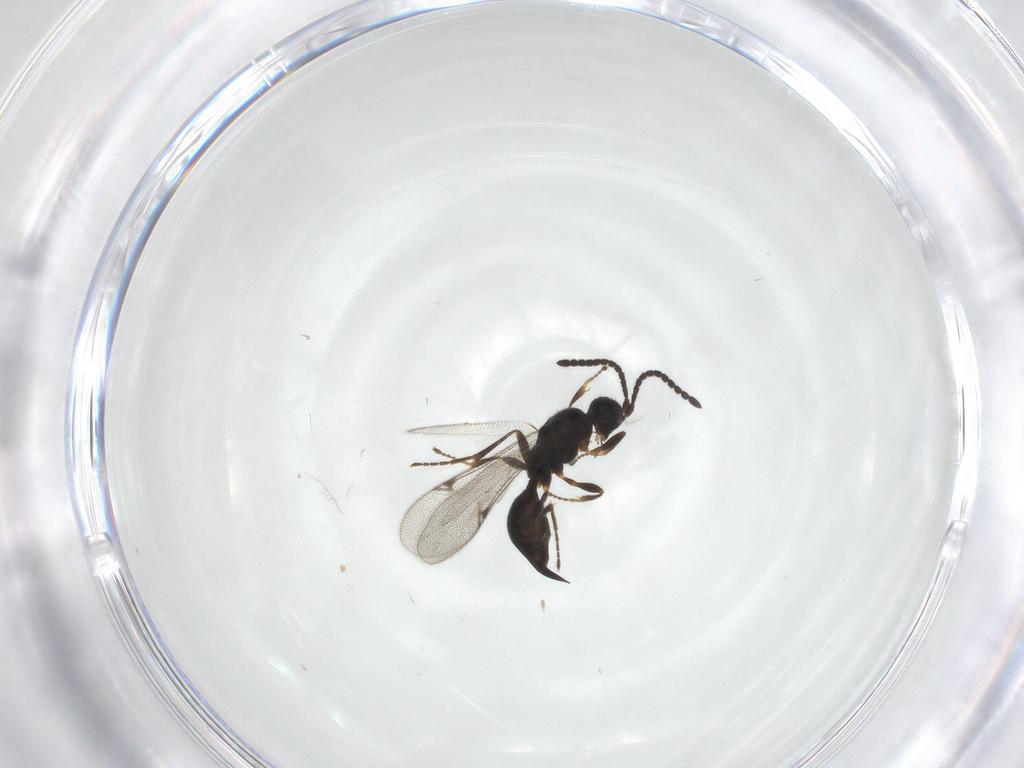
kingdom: Animalia
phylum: Arthropoda
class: Insecta
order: Hymenoptera
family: Proctotrupidae
